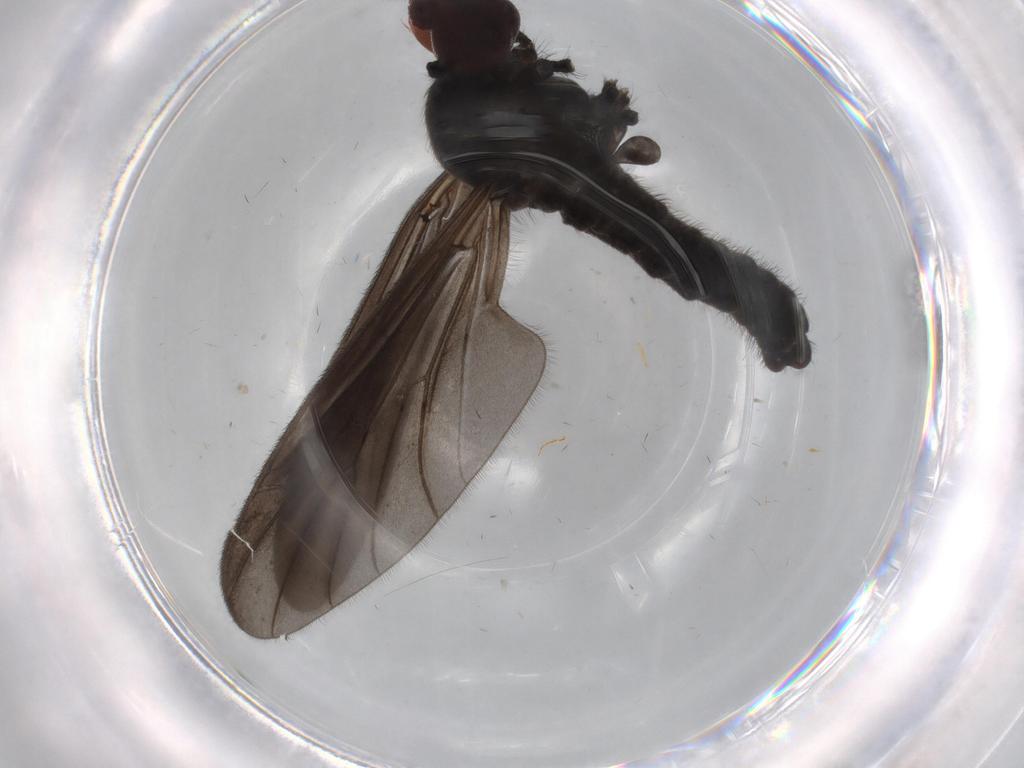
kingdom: Animalia
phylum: Arthropoda
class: Insecta
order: Diptera
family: Bibionidae
